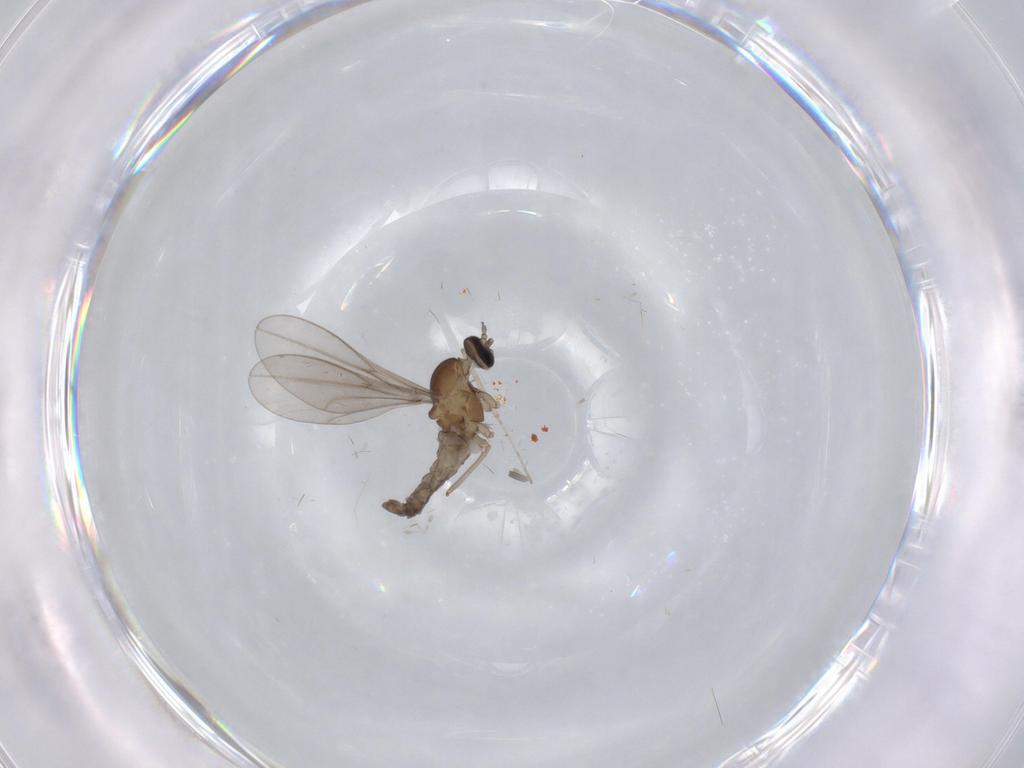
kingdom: Animalia
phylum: Arthropoda
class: Insecta
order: Diptera
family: Cecidomyiidae
